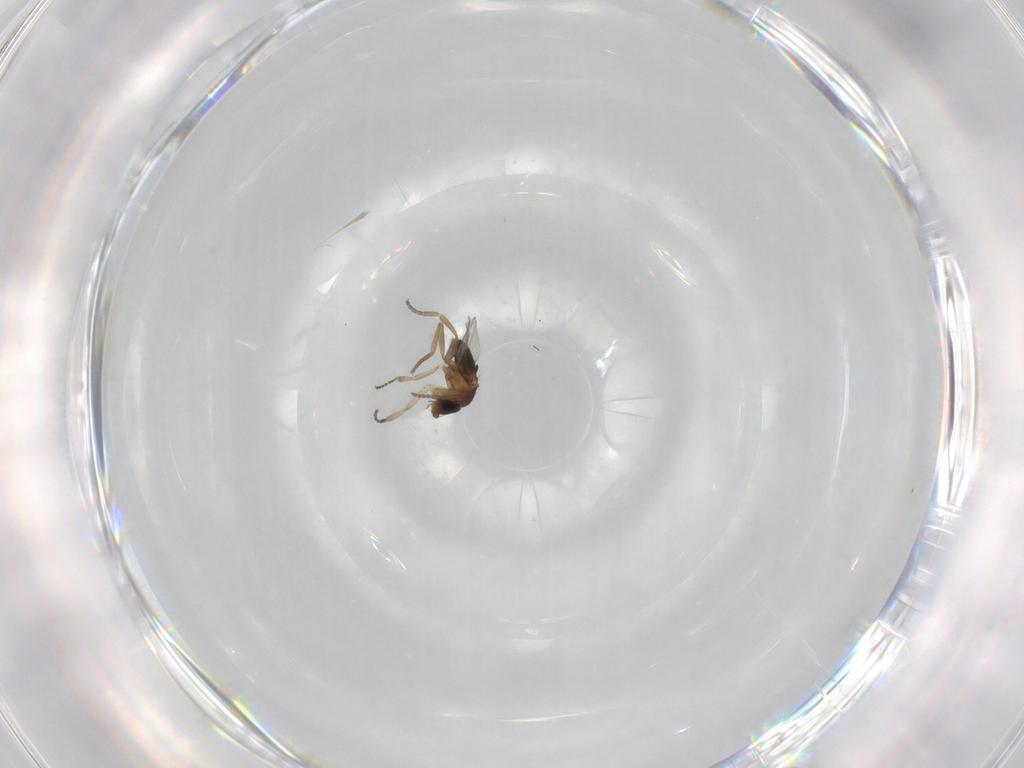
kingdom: Animalia
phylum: Arthropoda
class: Insecta
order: Diptera
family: Phoridae
